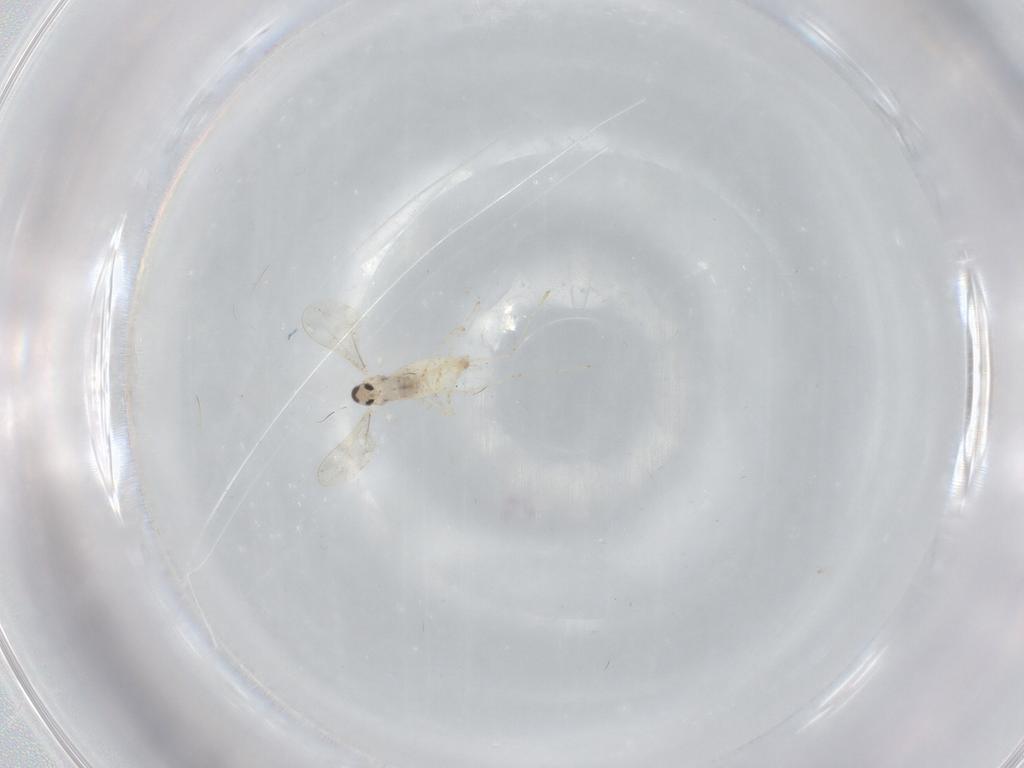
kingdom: Animalia
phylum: Arthropoda
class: Insecta
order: Diptera
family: Cecidomyiidae
